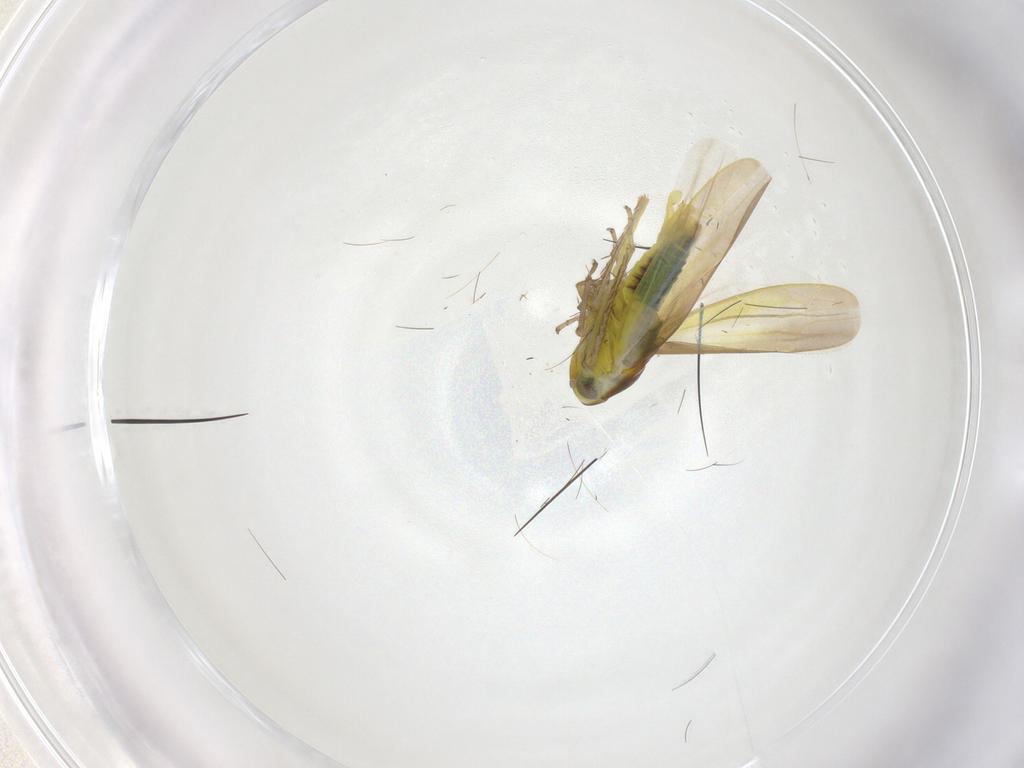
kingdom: Animalia
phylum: Arthropoda
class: Insecta
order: Hemiptera
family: Cicadellidae
